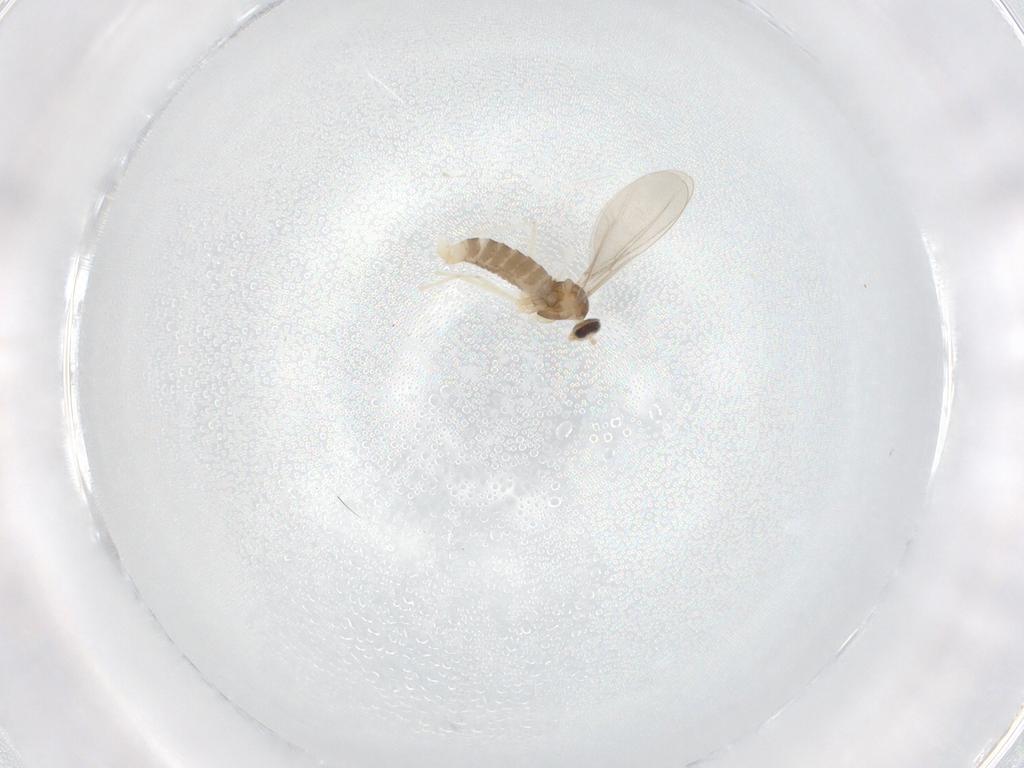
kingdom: Animalia
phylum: Arthropoda
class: Insecta
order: Diptera
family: Cecidomyiidae
